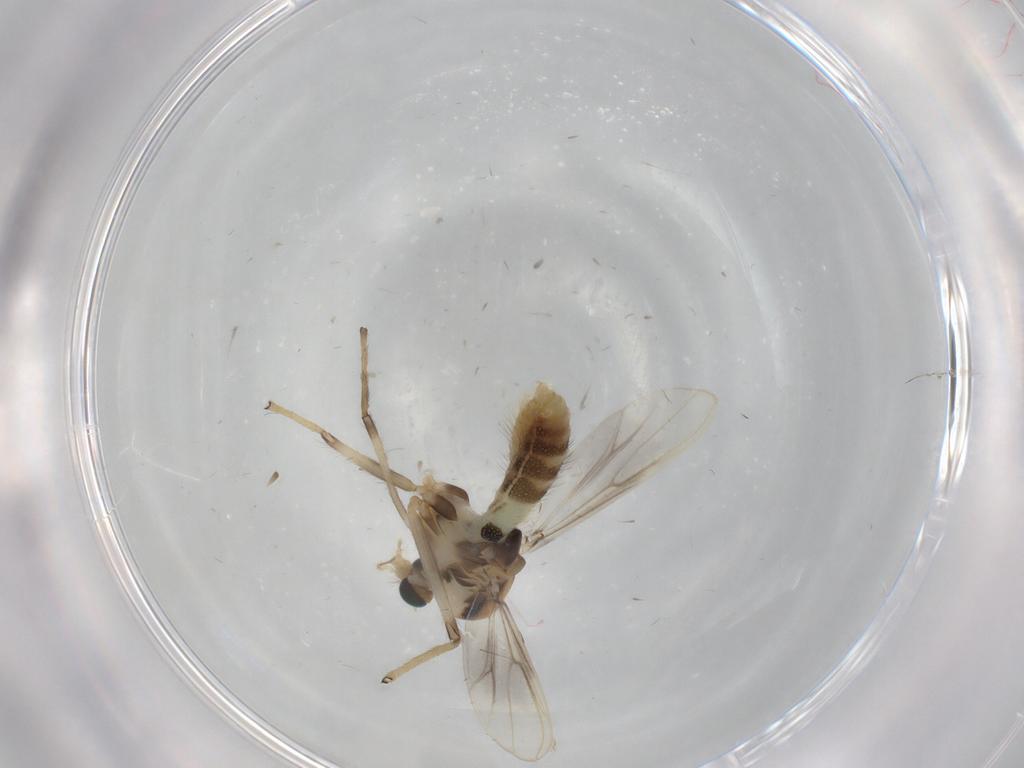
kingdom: Animalia
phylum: Arthropoda
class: Insecta
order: Diptera
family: Chironomidae
